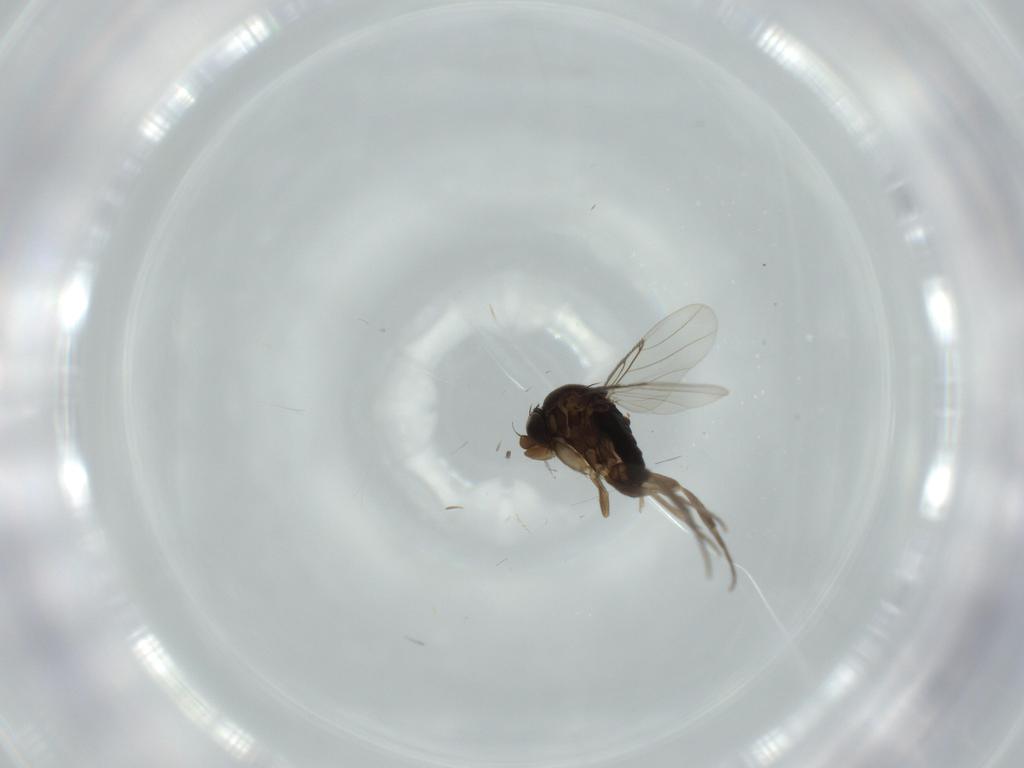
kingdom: Animalia
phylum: Arthropoda
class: Insecta
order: Diptera
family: Phoridae
